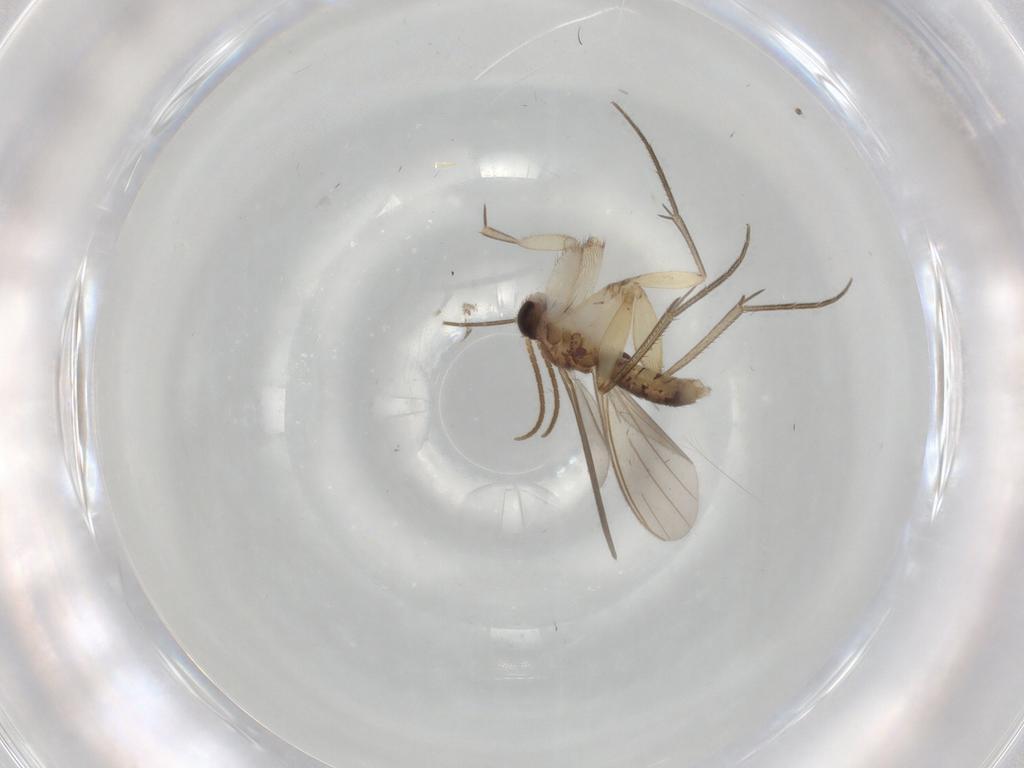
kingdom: Animalia
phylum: Arthropoda
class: Insecta
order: Diptera
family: Mycetophilidae
